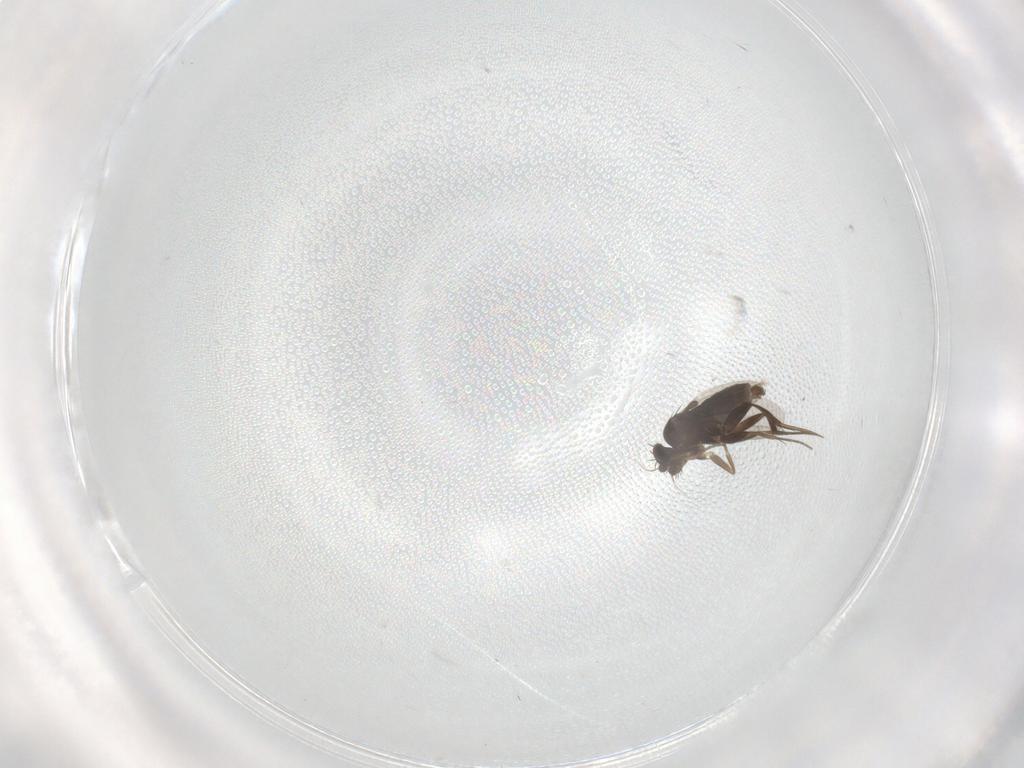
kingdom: Animalia
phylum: Arthropoda
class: Insecta
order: Diptera
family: Phoridae
